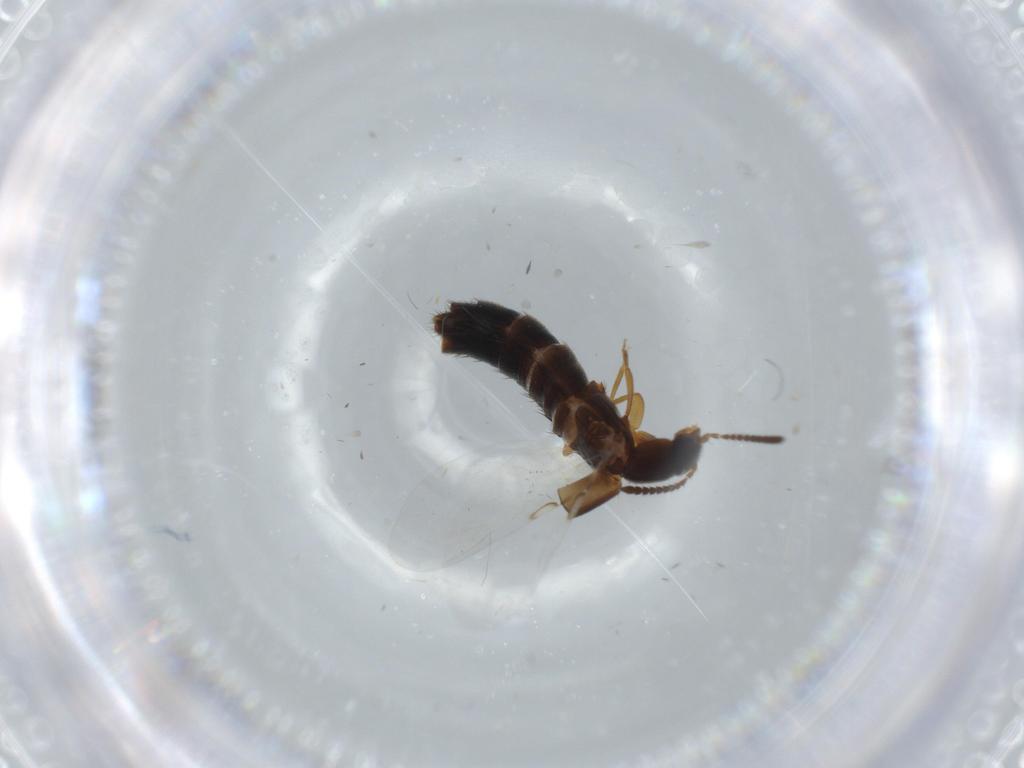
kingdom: Animalia
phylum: Arthropoda
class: Insecta
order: Coleoptera
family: Staphylinidae
